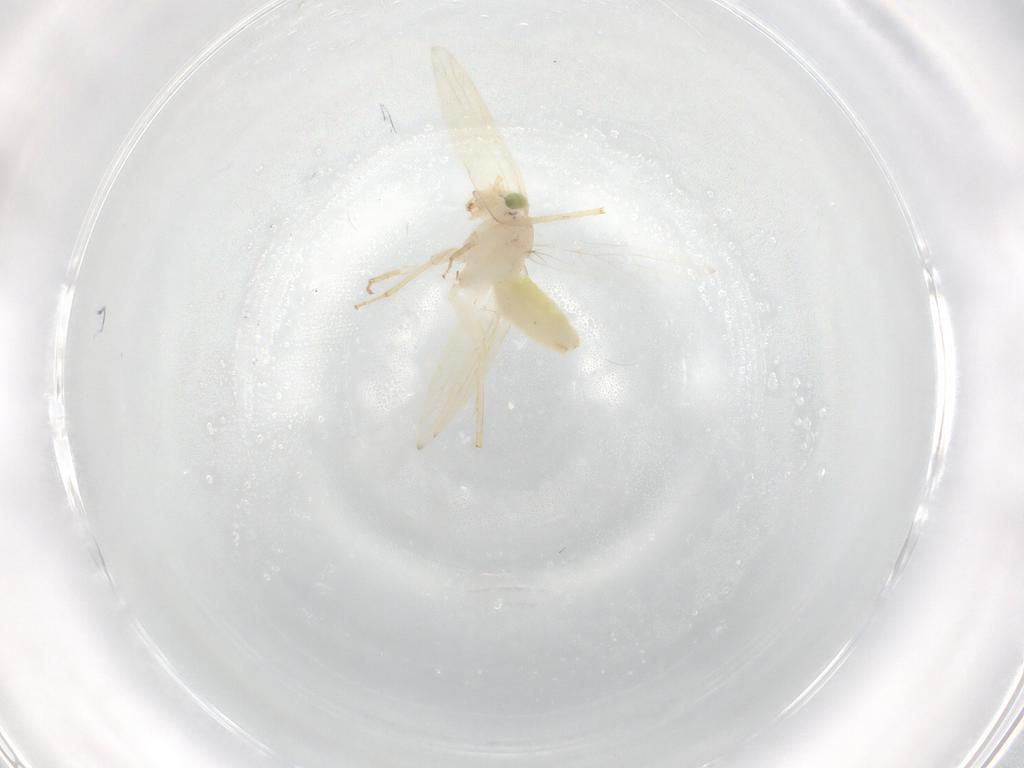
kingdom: Animalia
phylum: Arthropoda
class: Insecta
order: Psocodea
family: Lepidopsocidae
